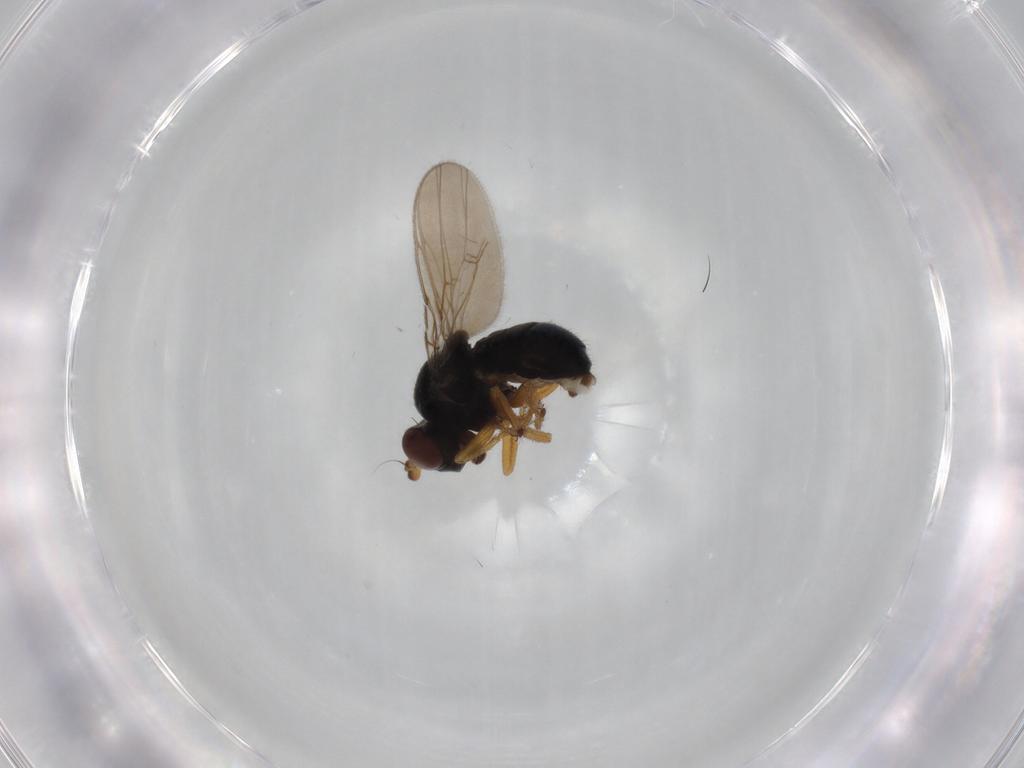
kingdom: Animalia
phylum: Arthropoda
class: Insecta
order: Diptera
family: Ephydridae
